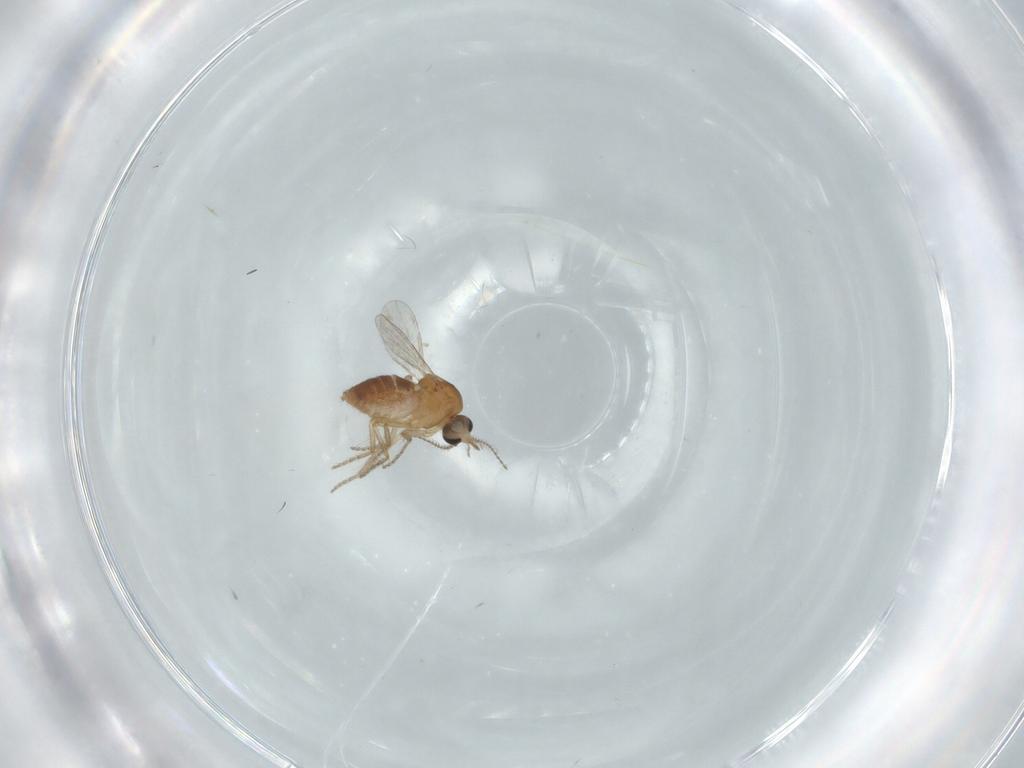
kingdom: Animalia
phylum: Arthropoda
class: Insecta
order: Diptera
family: Ceratopogonidae
